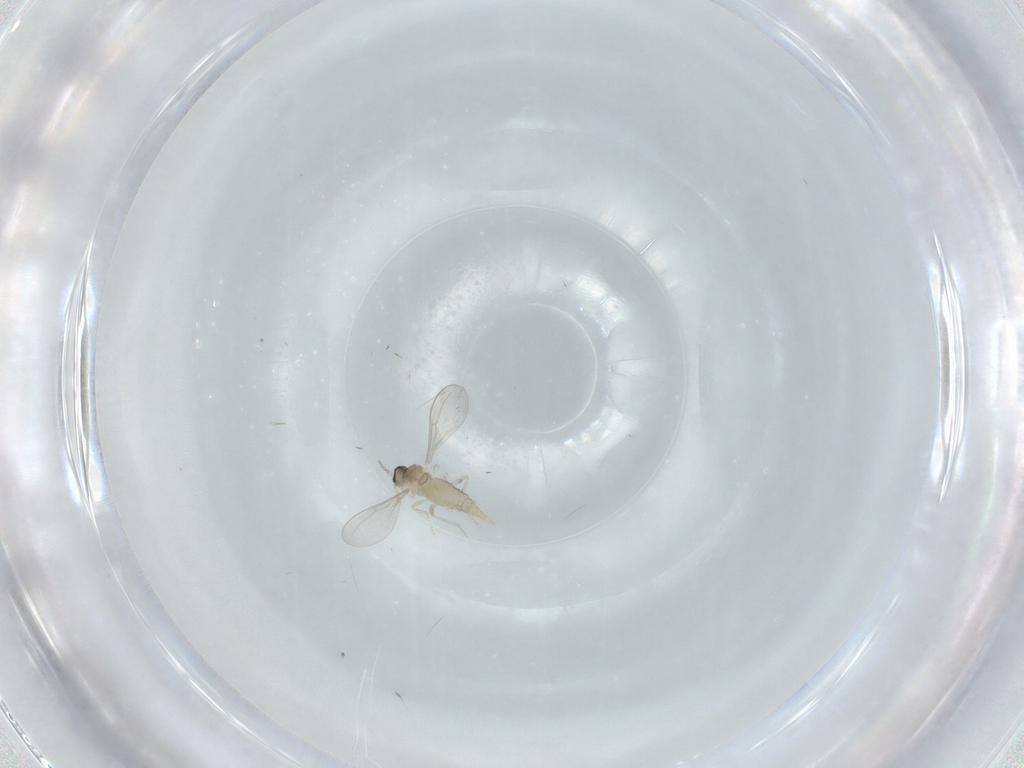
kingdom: Animalia
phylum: Arthropoda
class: Insecta
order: Diptera
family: Cecidomyiidae
